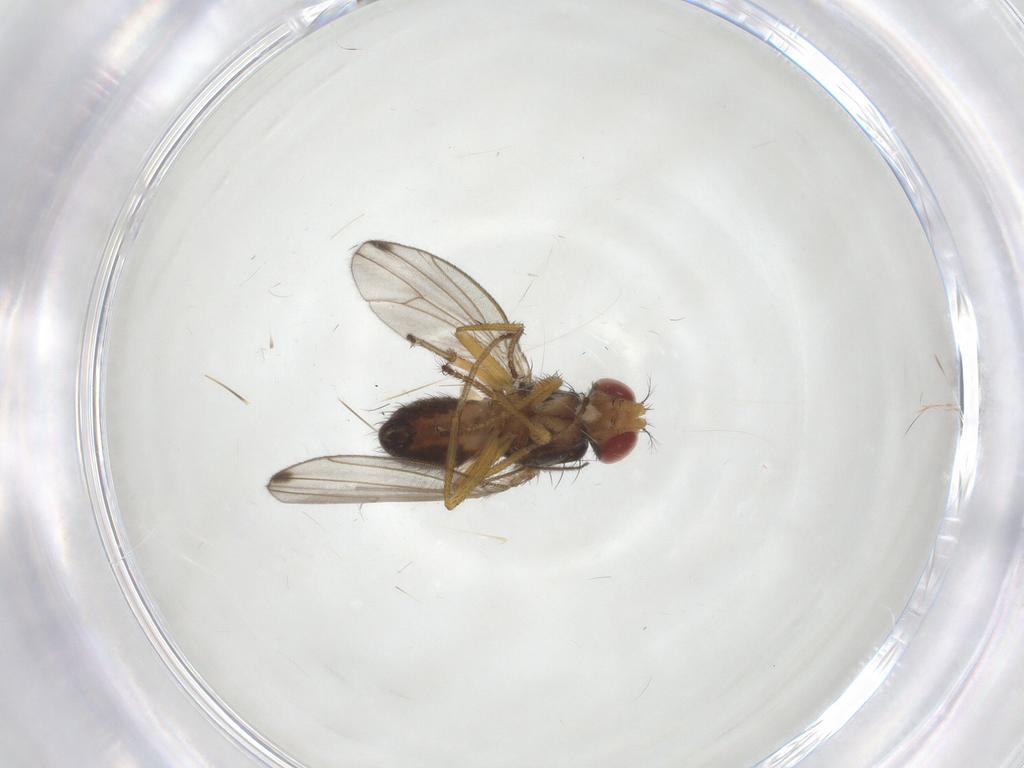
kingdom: Animalia
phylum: Arthropoda
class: Insecta
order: Diptera
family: Drosophilidae
